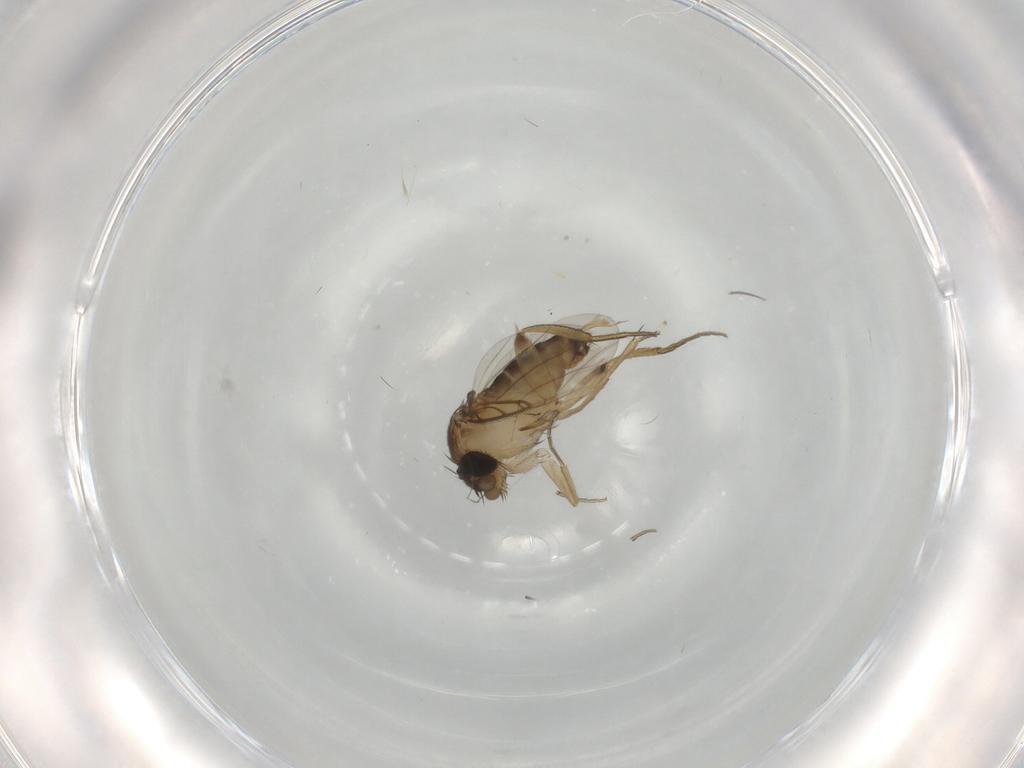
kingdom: Animalia
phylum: Arthropoda
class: Insecta
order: Diptera
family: Phoridae
